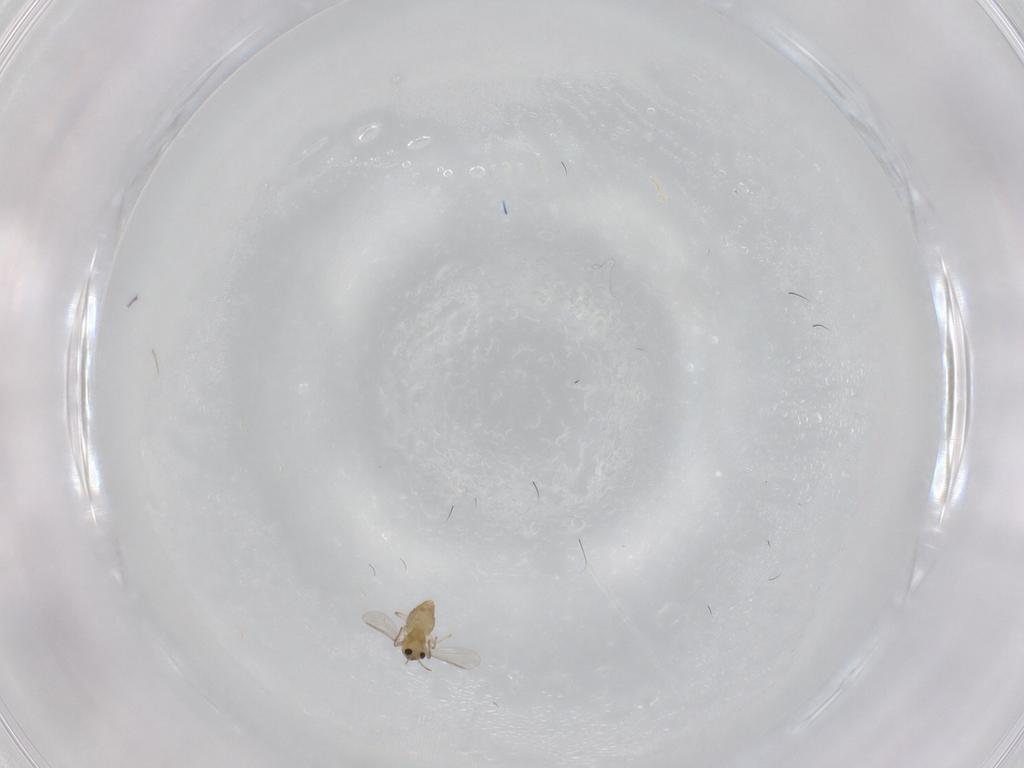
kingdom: Animalia
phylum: Arthropoda
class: Insecta
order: Diptera
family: Chironomidae
